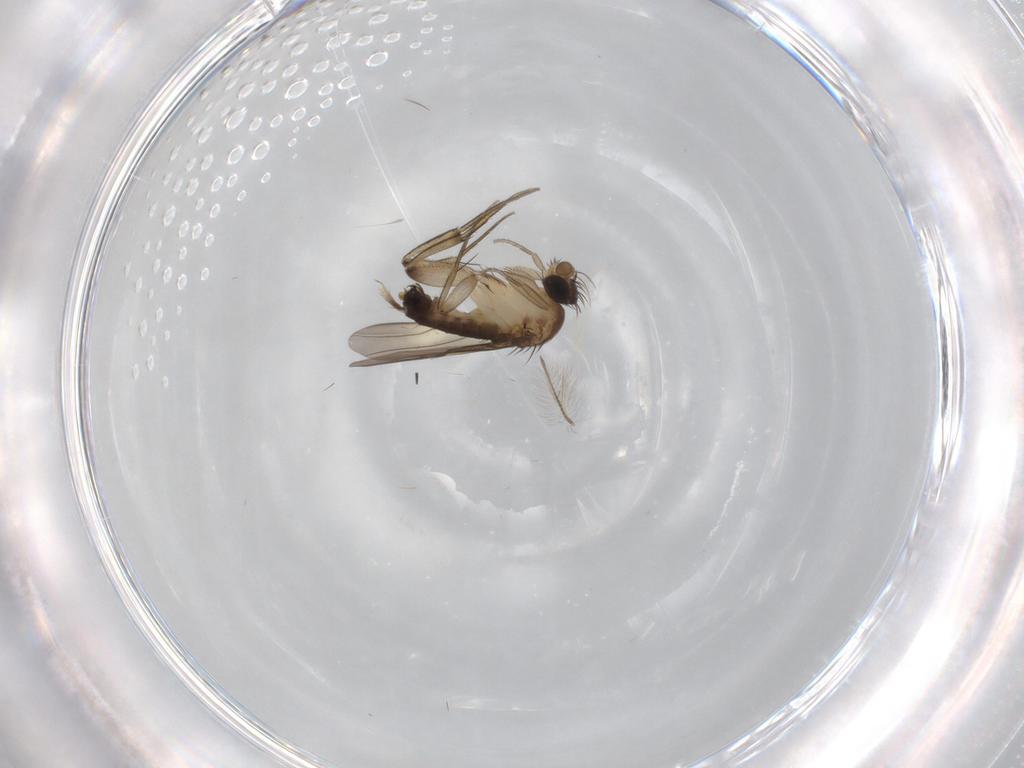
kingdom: Animalia
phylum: Arthropoda
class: Insecta
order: Diptera
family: Phoridae
